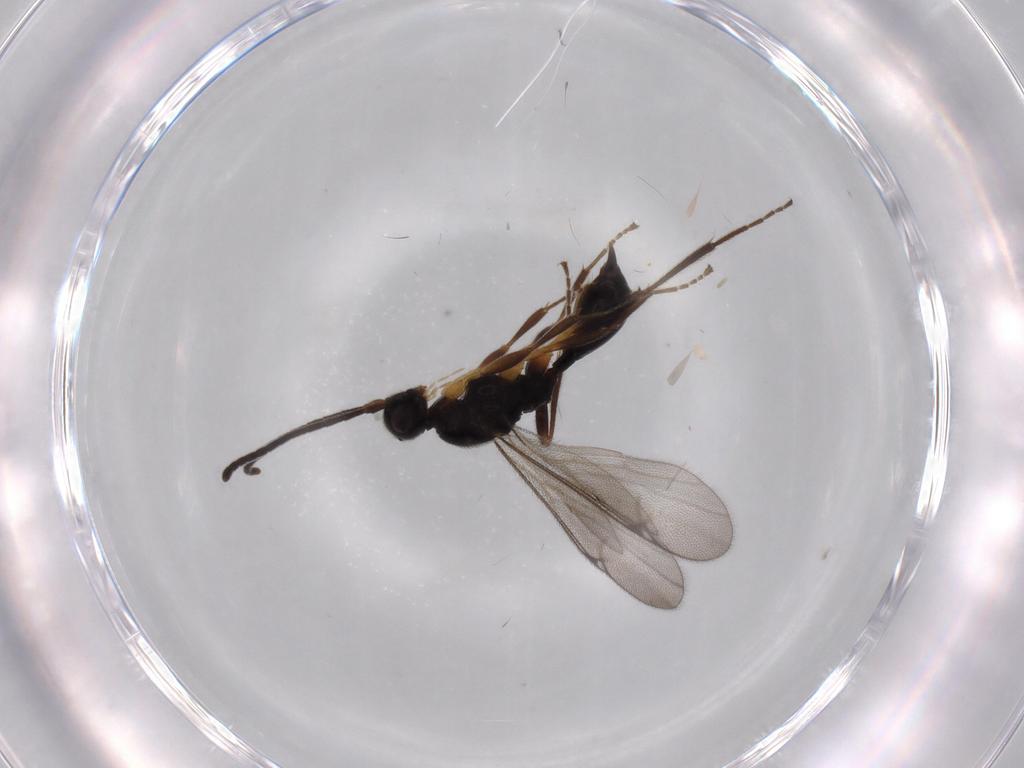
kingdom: Animalia
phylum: Arthropoda
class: Insecta
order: Hymenoptera
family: Proctotrupidae
